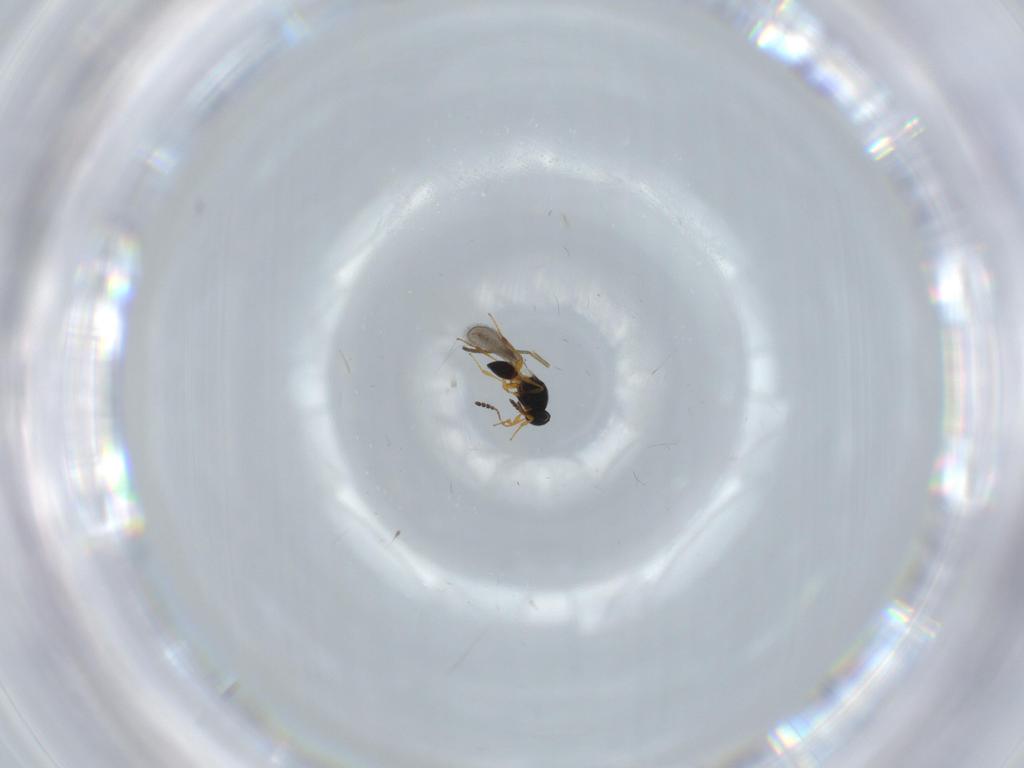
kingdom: Animalia
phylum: Arthropoda
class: Insecta
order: Hymenoptera
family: Platygastridae
